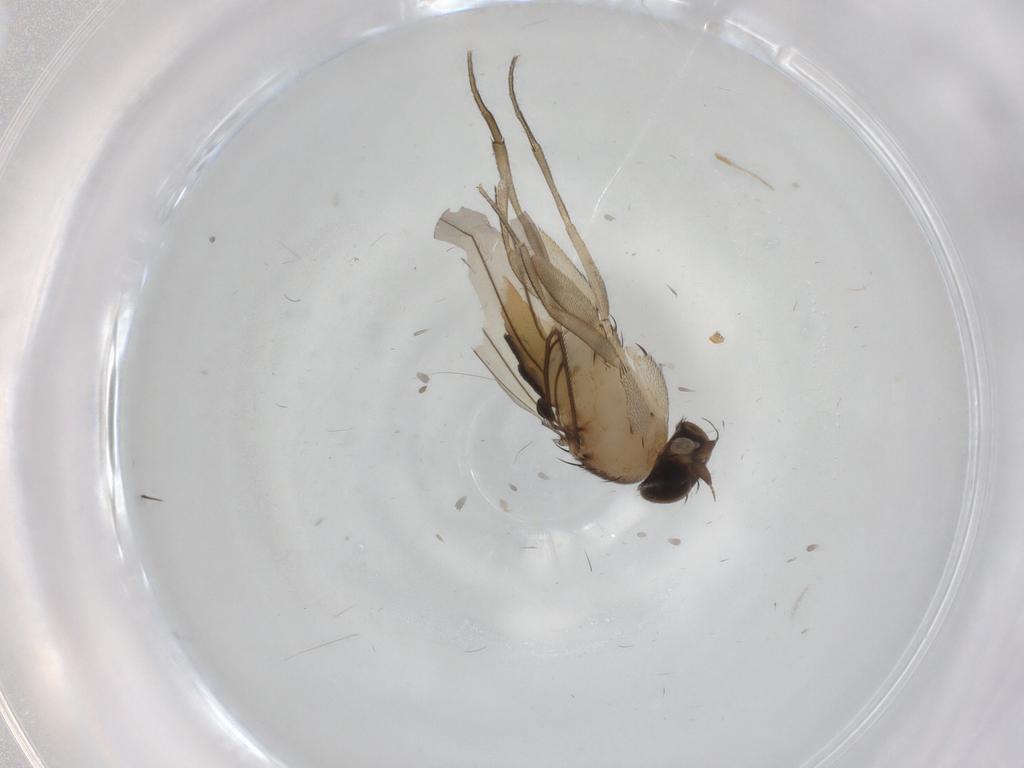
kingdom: Animalia
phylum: Arthropoda
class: Insecta
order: Diptera
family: Phoridae
